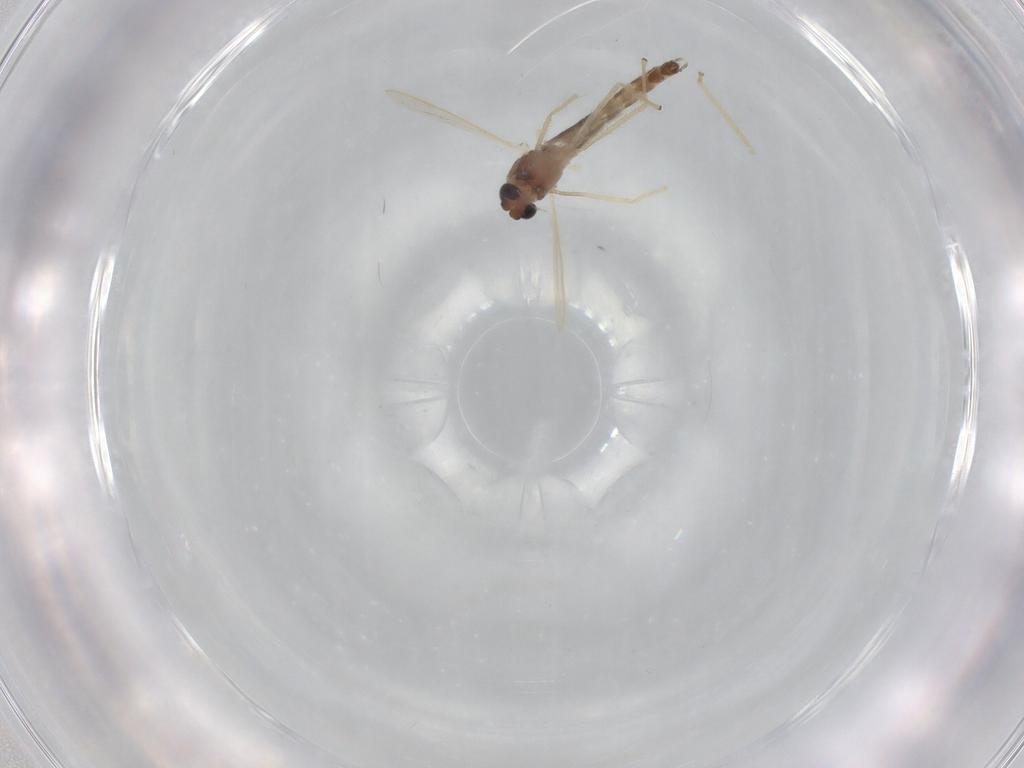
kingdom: Animalia
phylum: Arthropoda
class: Insecta
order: Diptera
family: Chironomidae
